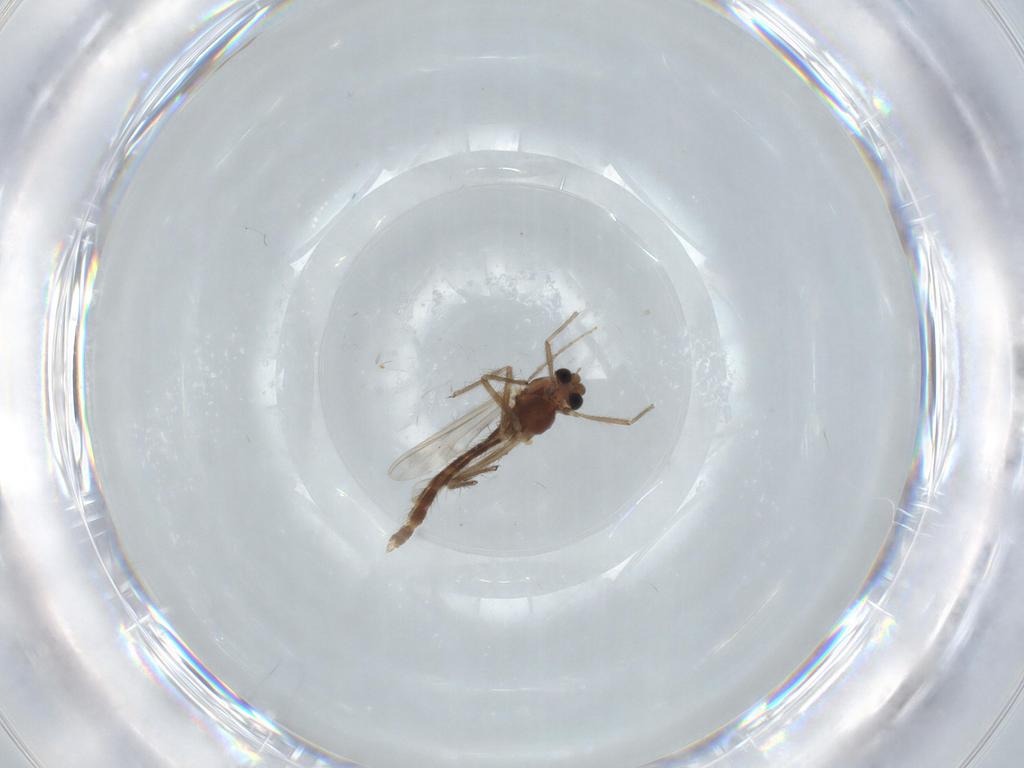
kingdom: Animalia
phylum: Arthropoda
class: Insecta
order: Diptera
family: Chironomidae
